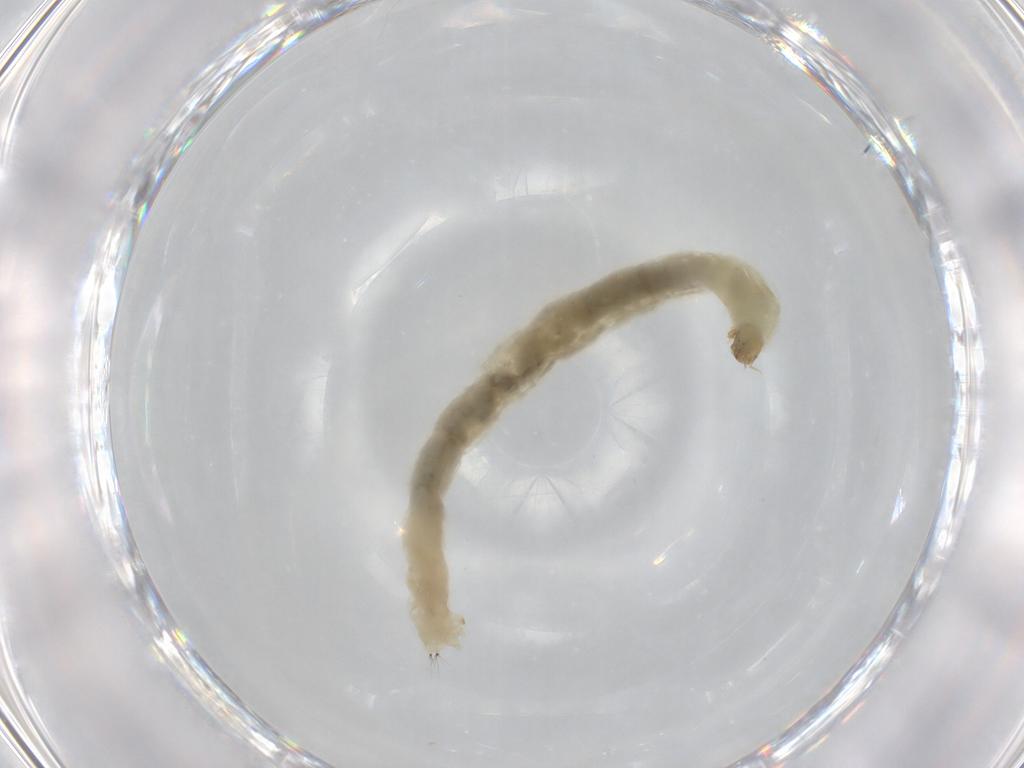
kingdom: Animalia
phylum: Arthropoda
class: Insecta
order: Diptera
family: Chironomidae
